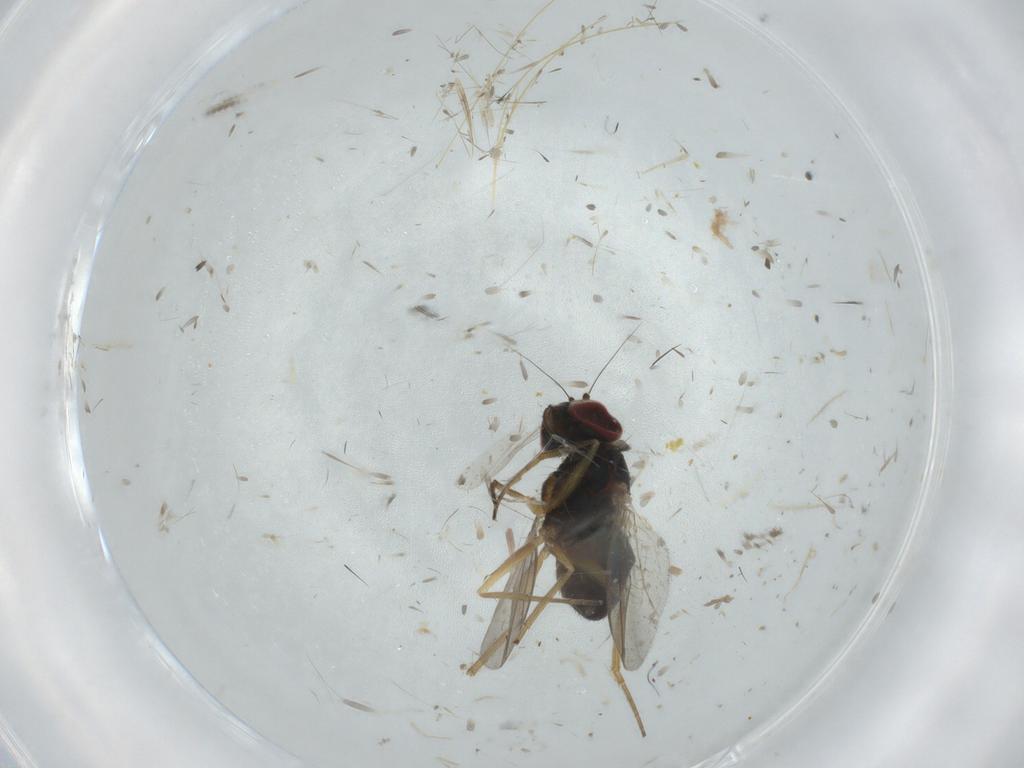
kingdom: Animalia
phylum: Arthropoda
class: Insecta
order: Diptera
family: Dolichopodidae
